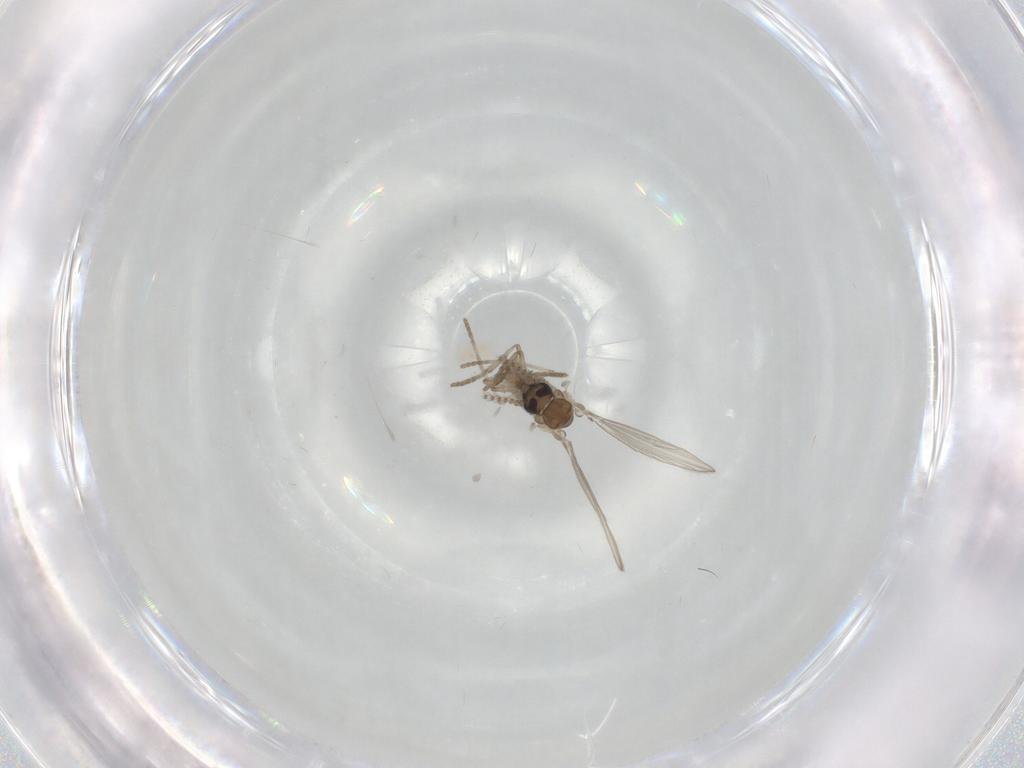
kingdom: Animalia
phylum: Arthropoda
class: Insecta
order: Diptera
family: Psychodidae
